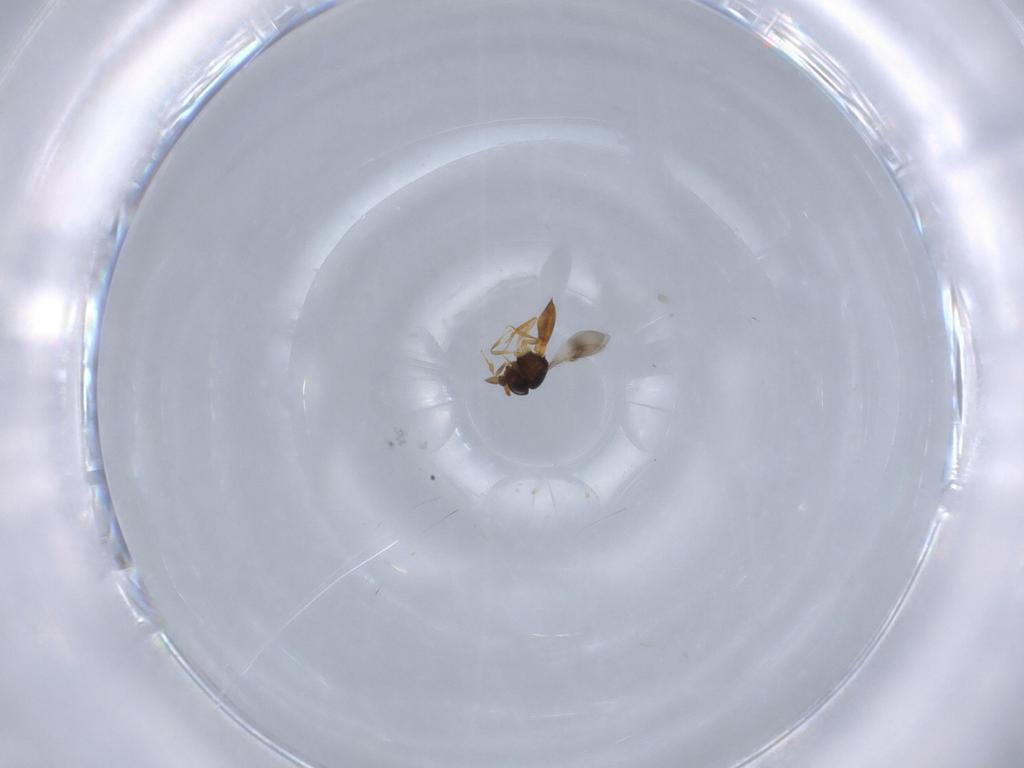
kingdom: Animalia
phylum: Arthropoda
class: Insecta
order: Hymenoptera
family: Scelionidae
